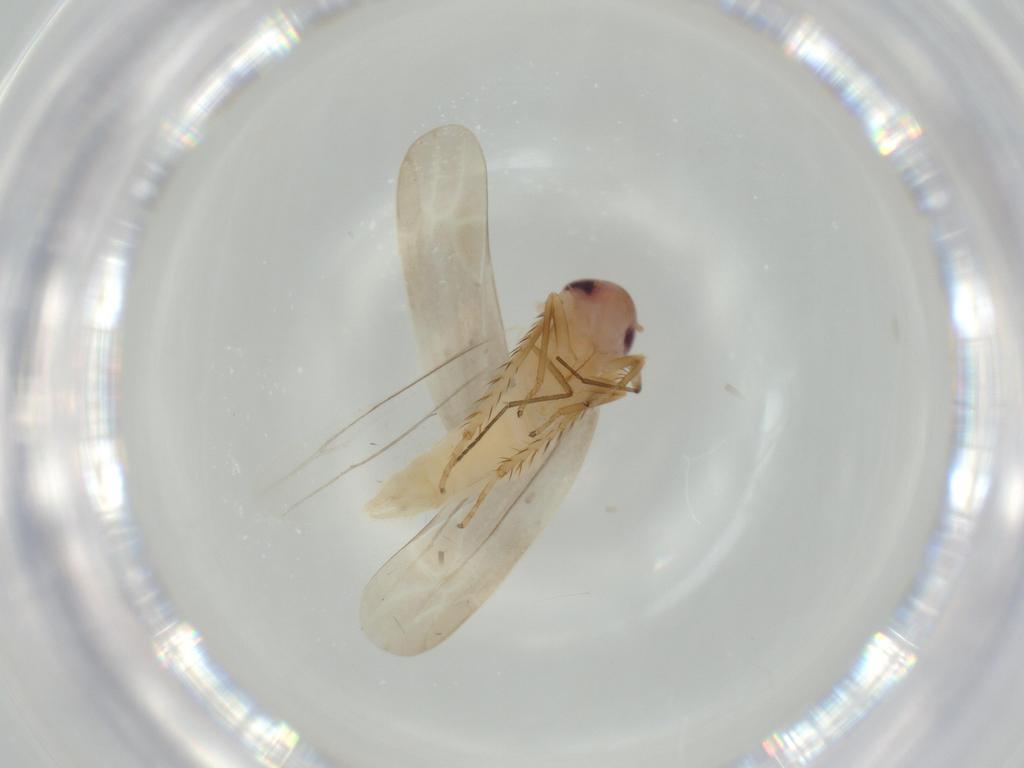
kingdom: Animalia
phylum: Arthropoda
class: Insecta
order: Hemiptera
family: Cicadellidae
